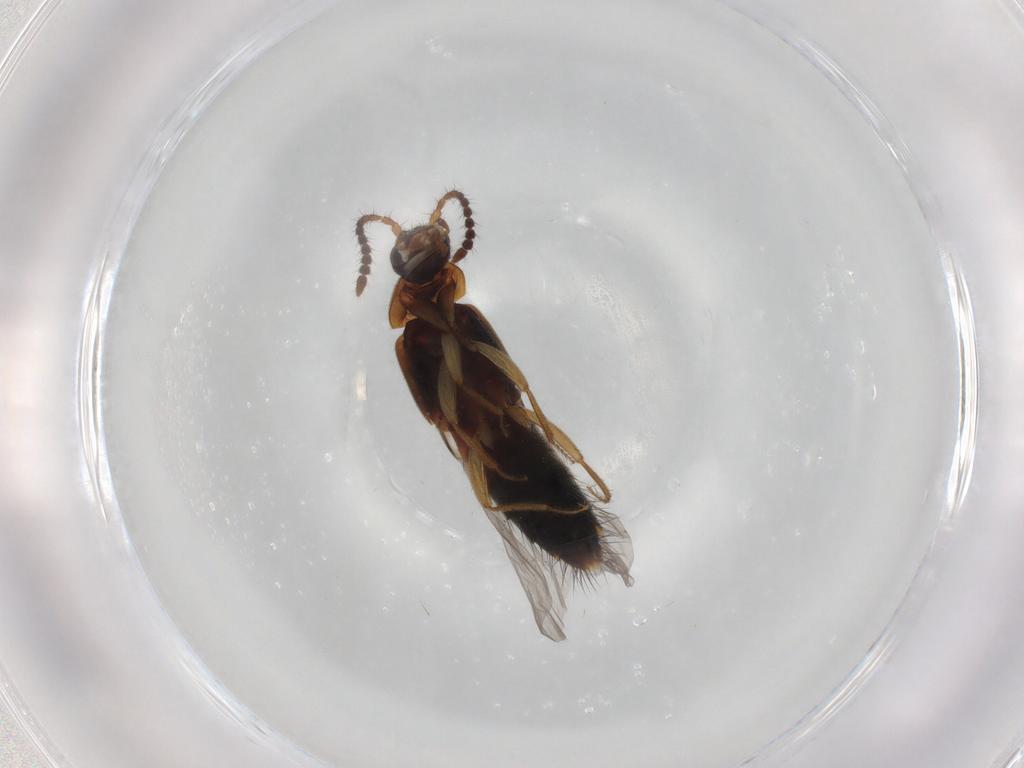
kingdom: Animalia
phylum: Arthropoda
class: Insecta
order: Coleoptera
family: Staphylinidae
